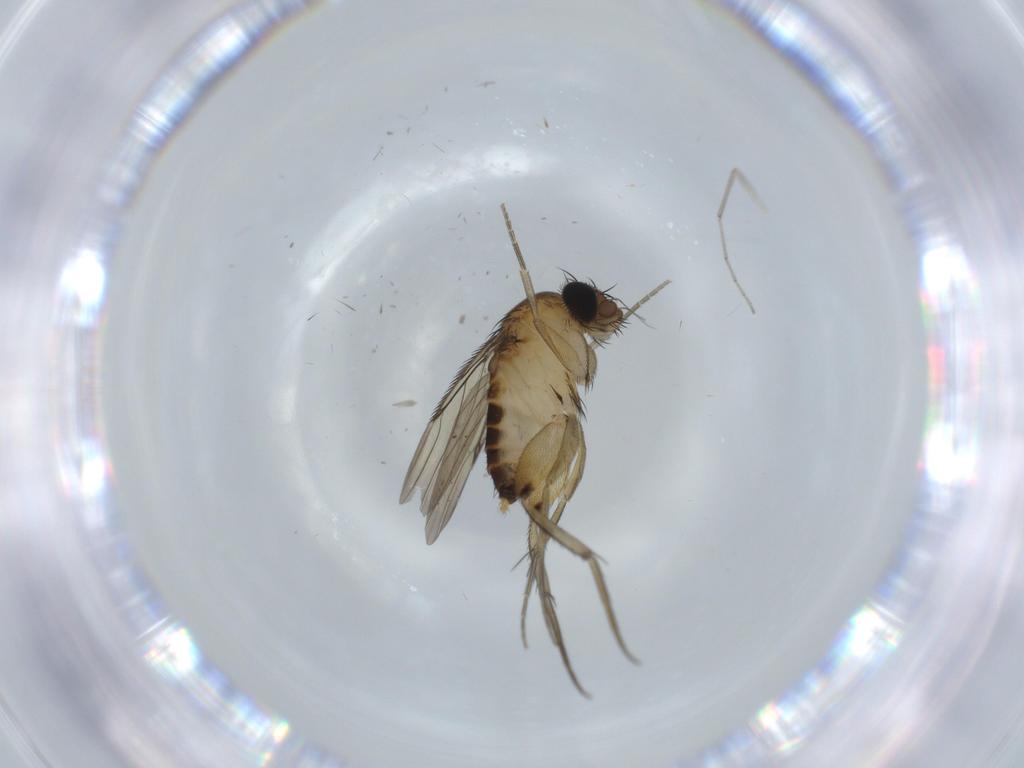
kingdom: Animalia
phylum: Arthropoda
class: Insecta
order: Diptera
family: Phoridae
